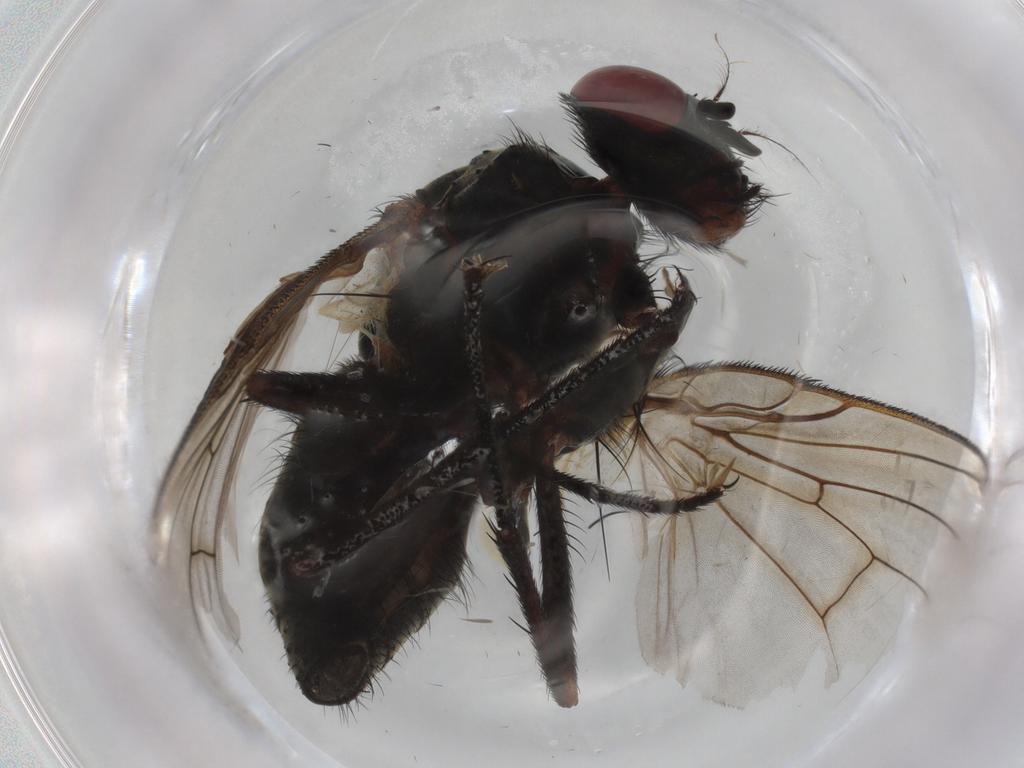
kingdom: Animalia
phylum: Arthropoda
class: Insecta
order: Diptera
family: Muscidae
